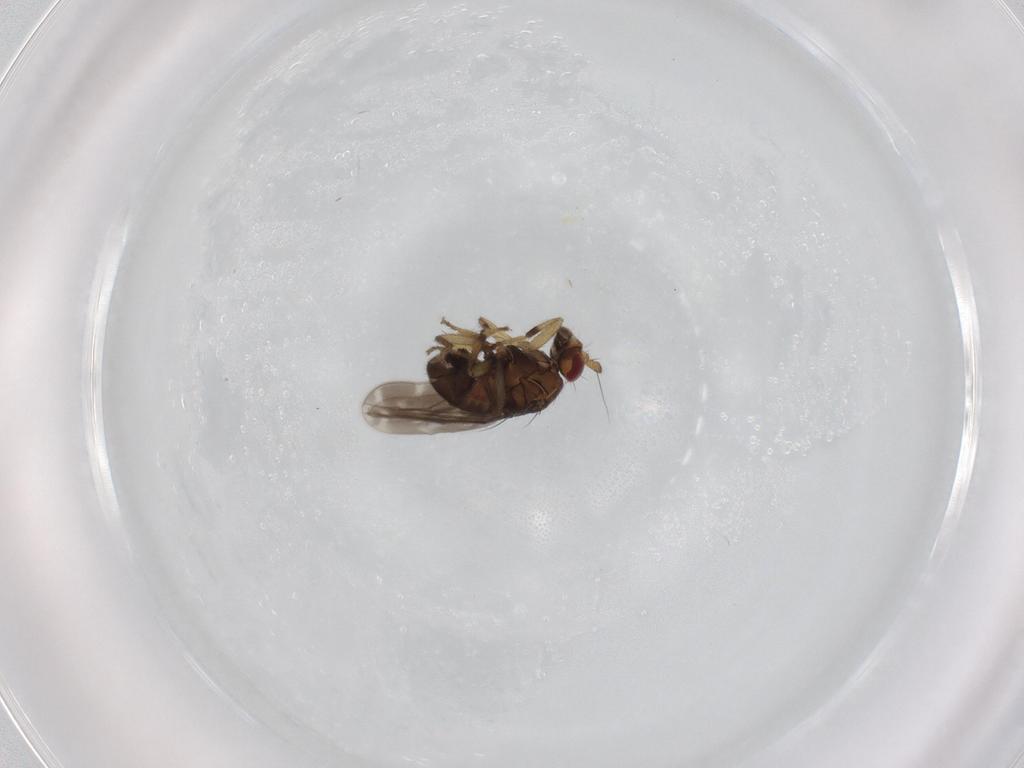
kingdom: Animalia
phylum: Arthropoda
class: Insecta
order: Diptera
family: Sphaeroceridae
